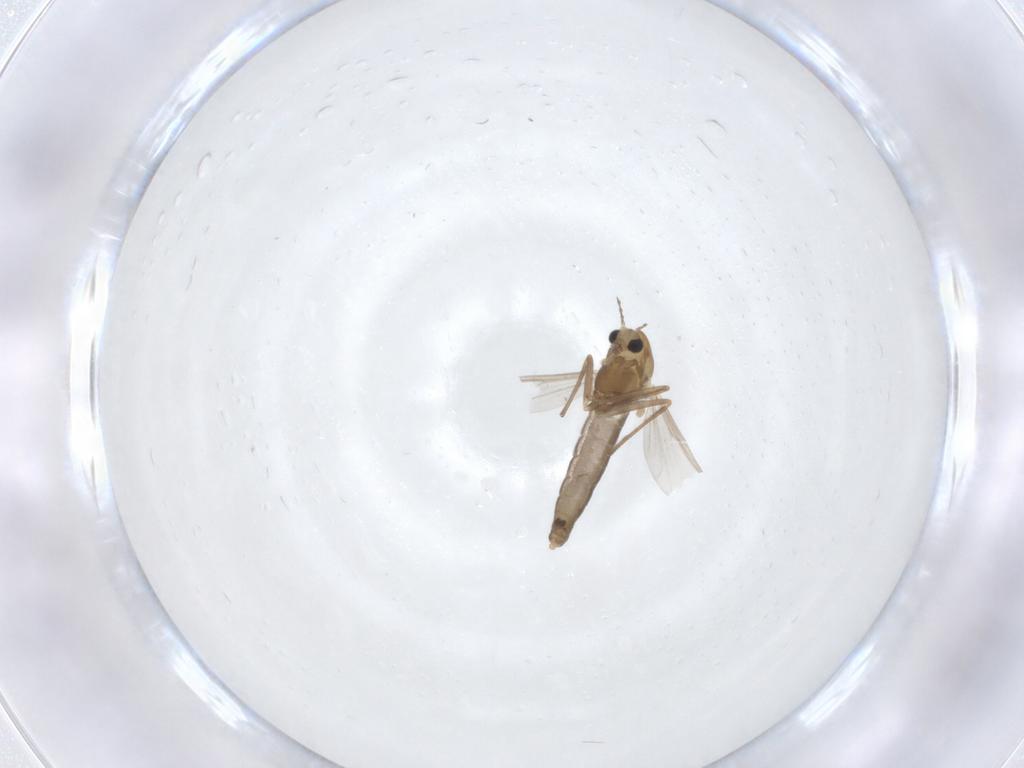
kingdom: Animalia
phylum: Arthropoda
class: Insecta
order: Diptera
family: Chironomidae
